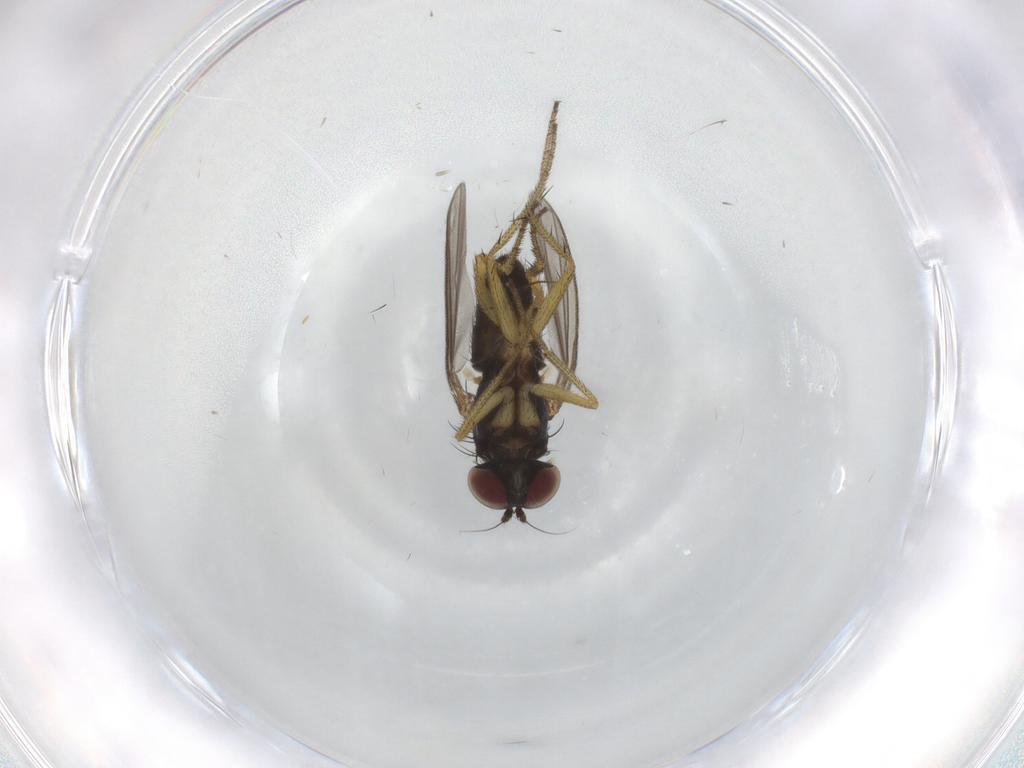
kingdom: Animalia
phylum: Arthropoda
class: Insecta
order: Diptera
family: Dolichopodidae
